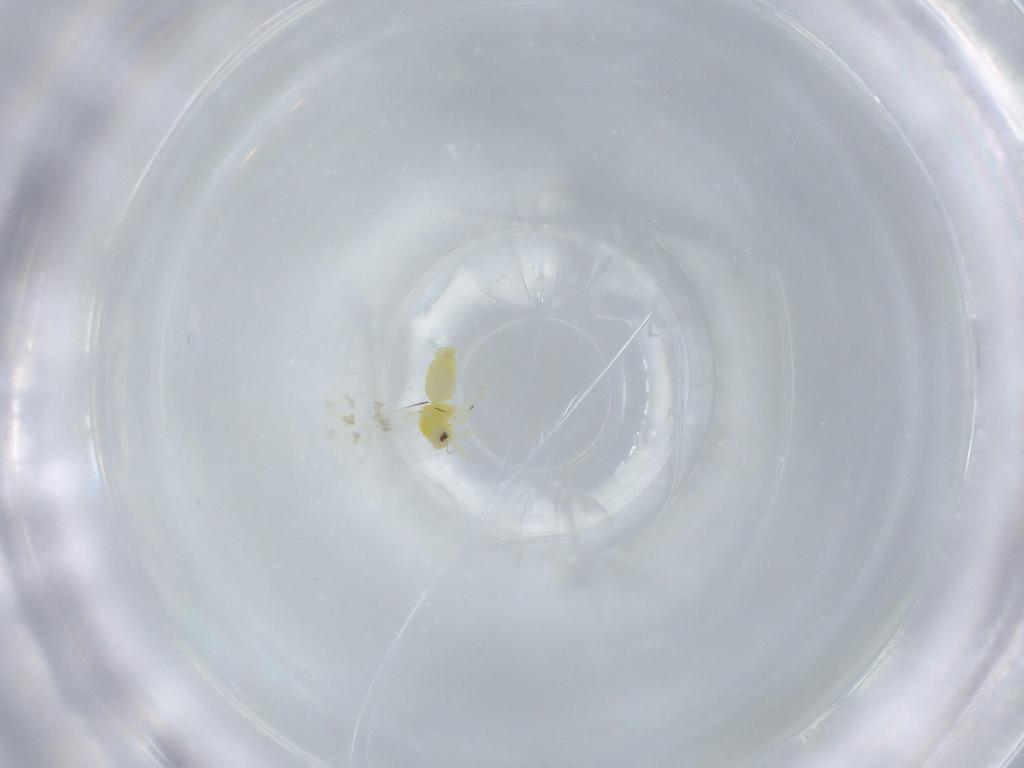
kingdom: Animalia
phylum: Arthropoda
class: Insecta
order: Hemiptera
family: Aleyrodidae
